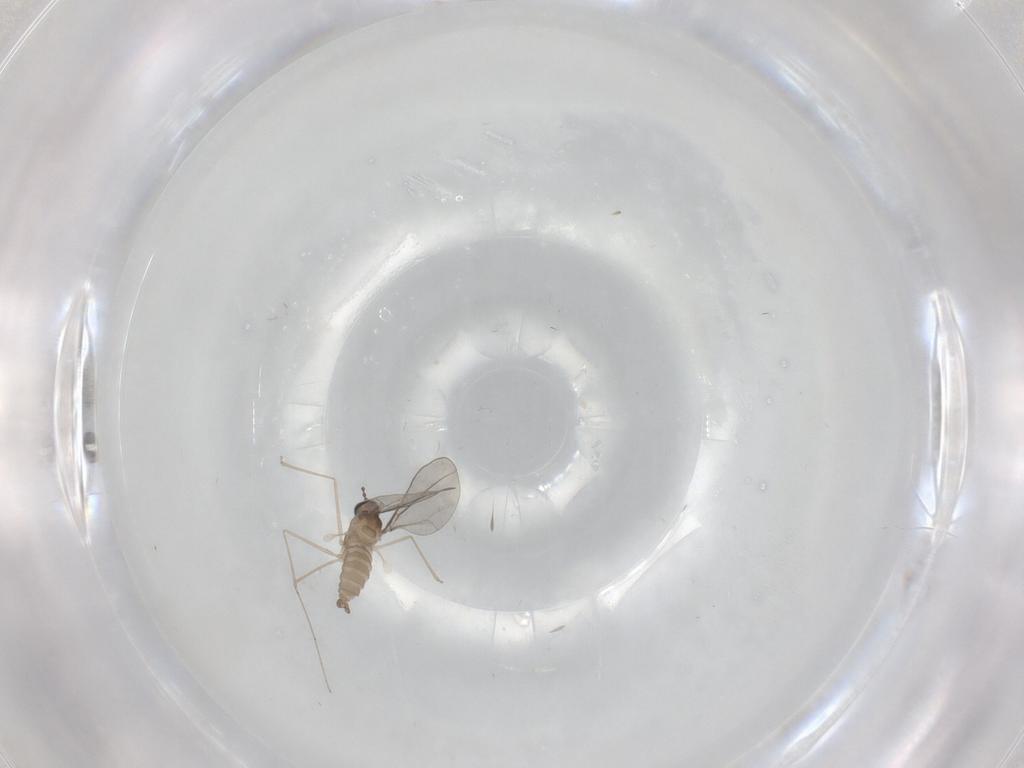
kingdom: Animalia
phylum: Arthropoda
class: Insecta
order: Diptera
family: Cecidomyiidae
